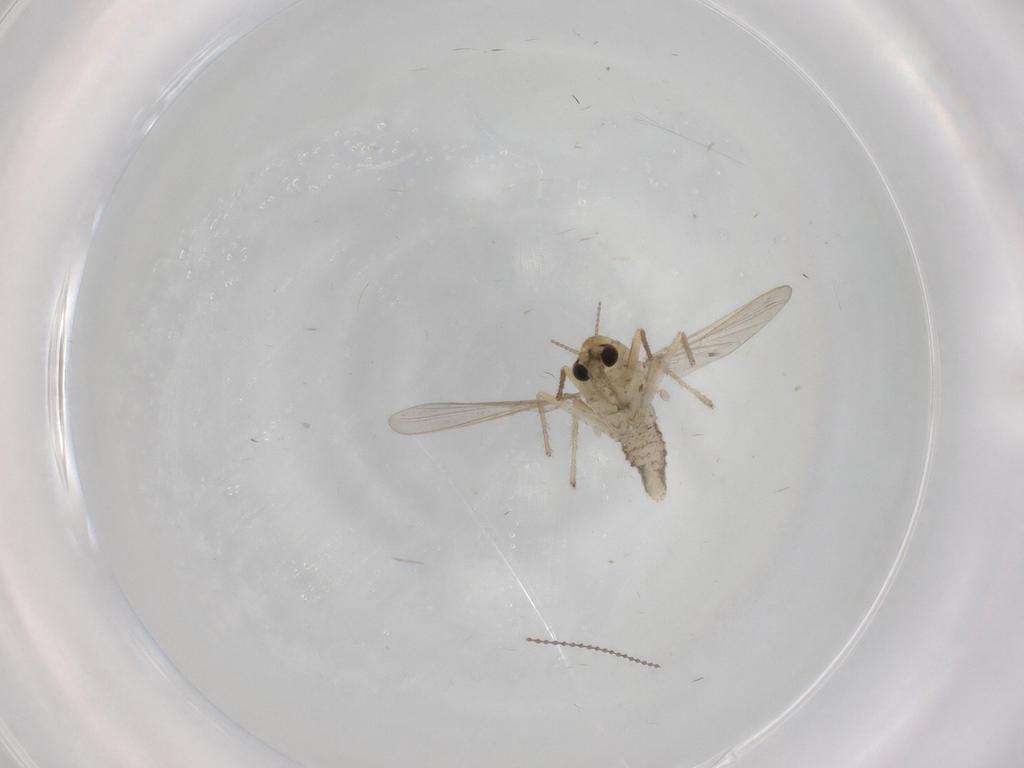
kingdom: Animalia
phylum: Arthropoda
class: Insecta
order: Diptera
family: Chironomidae
